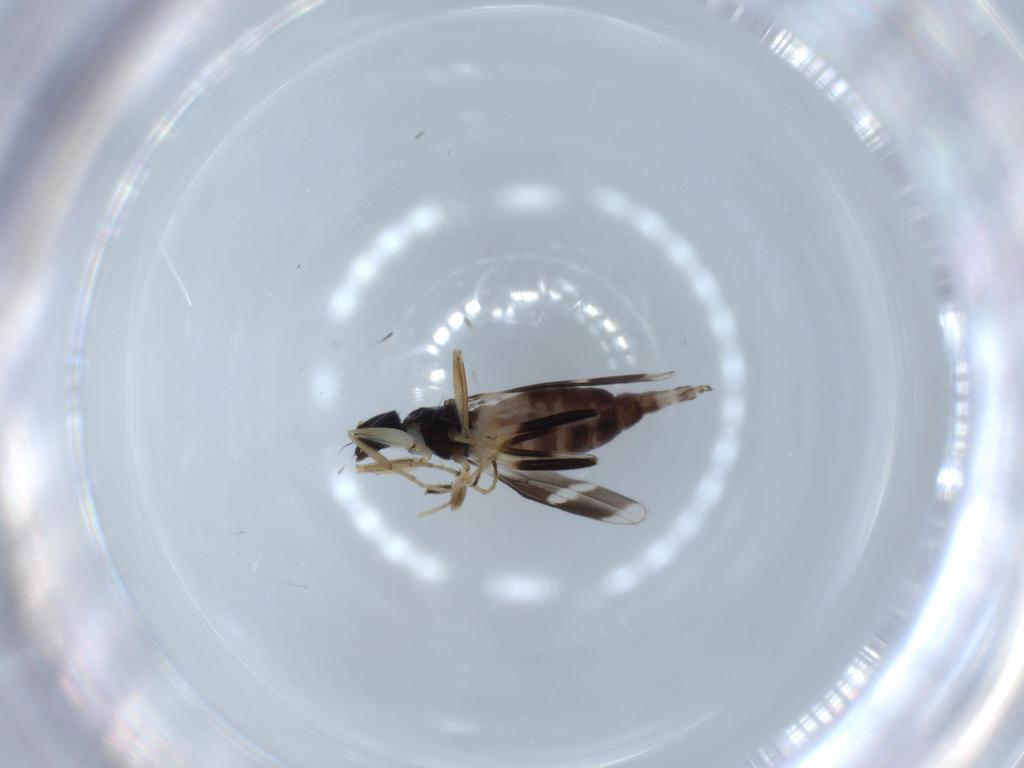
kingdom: Animalia
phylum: Arthropoda
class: Insecta
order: Diptera
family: Hybotidae
